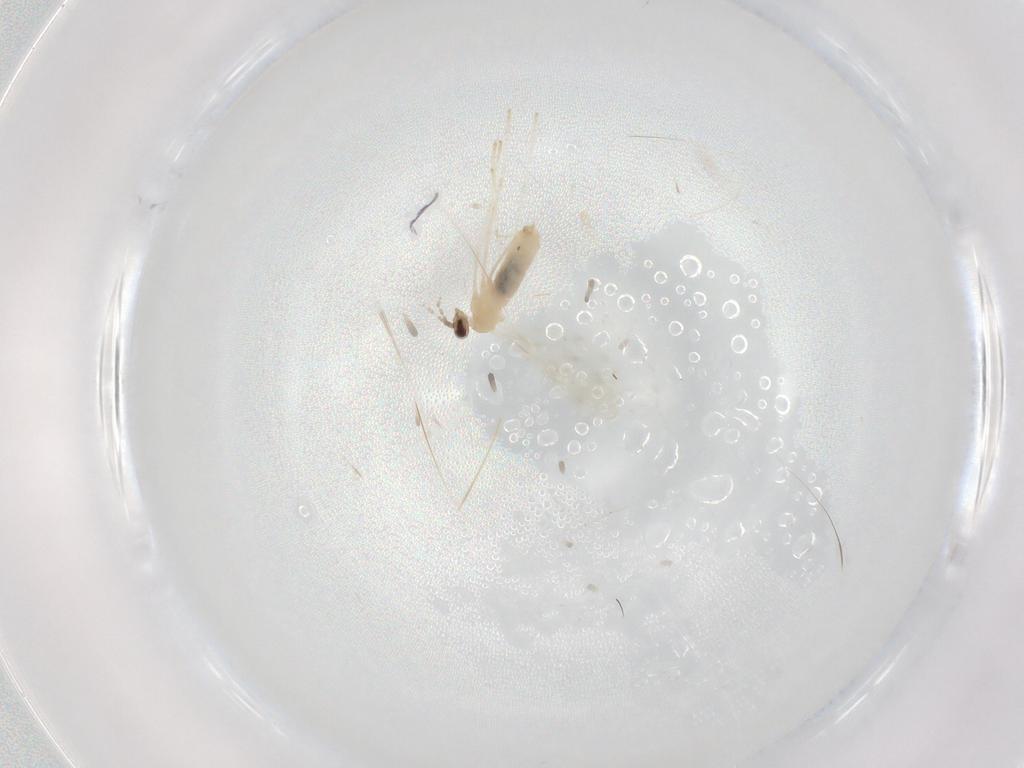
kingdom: Animalia
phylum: Arthropoda
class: Insecta
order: Diptera
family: Cecidomyiidae
